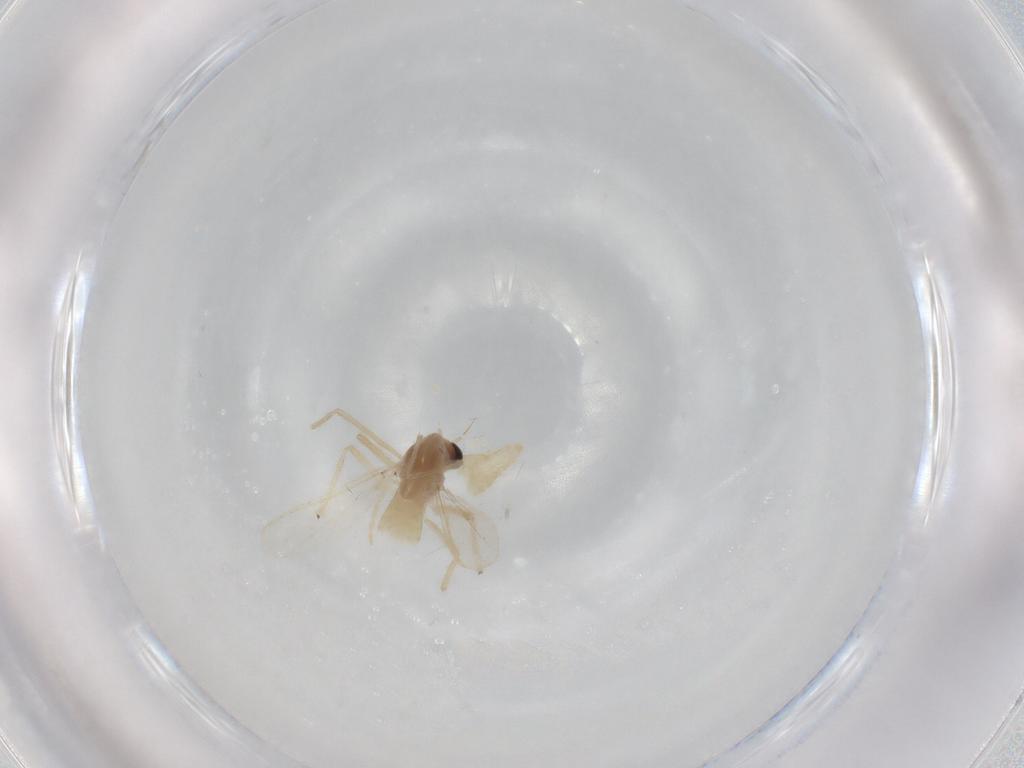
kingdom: Animalia
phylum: Arthropoda
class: Insecta
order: Diptera
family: Chironomidae
